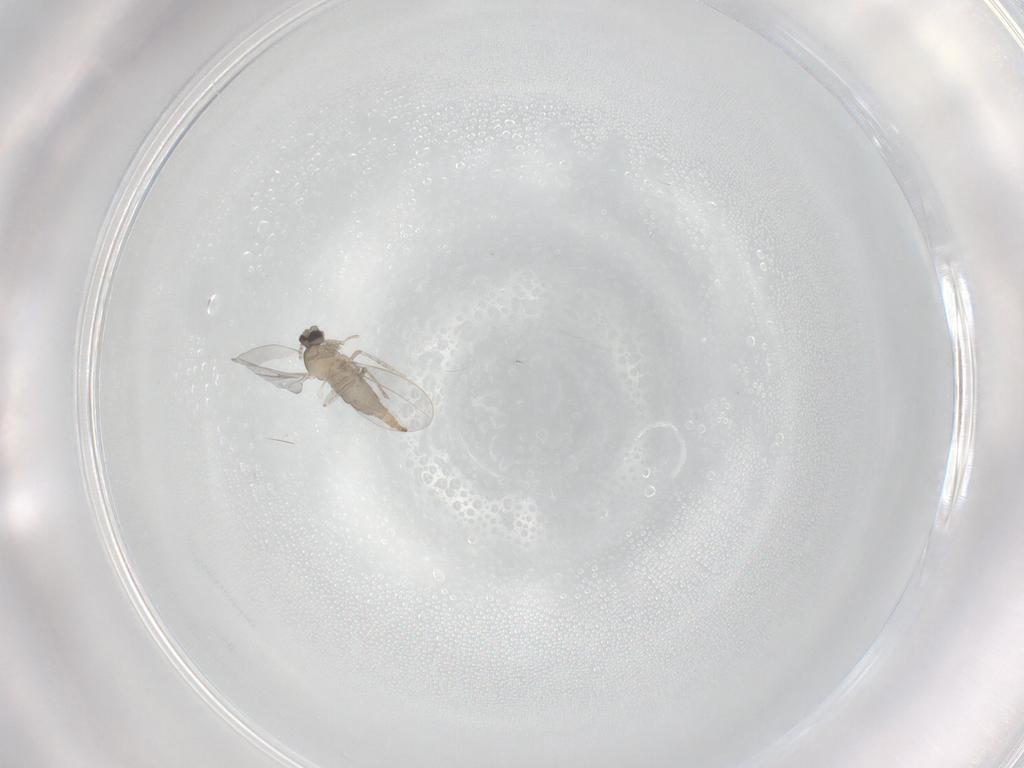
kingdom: Animalia
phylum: Arthropoda
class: Insecta
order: Diptera
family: Cecidomyiidae
